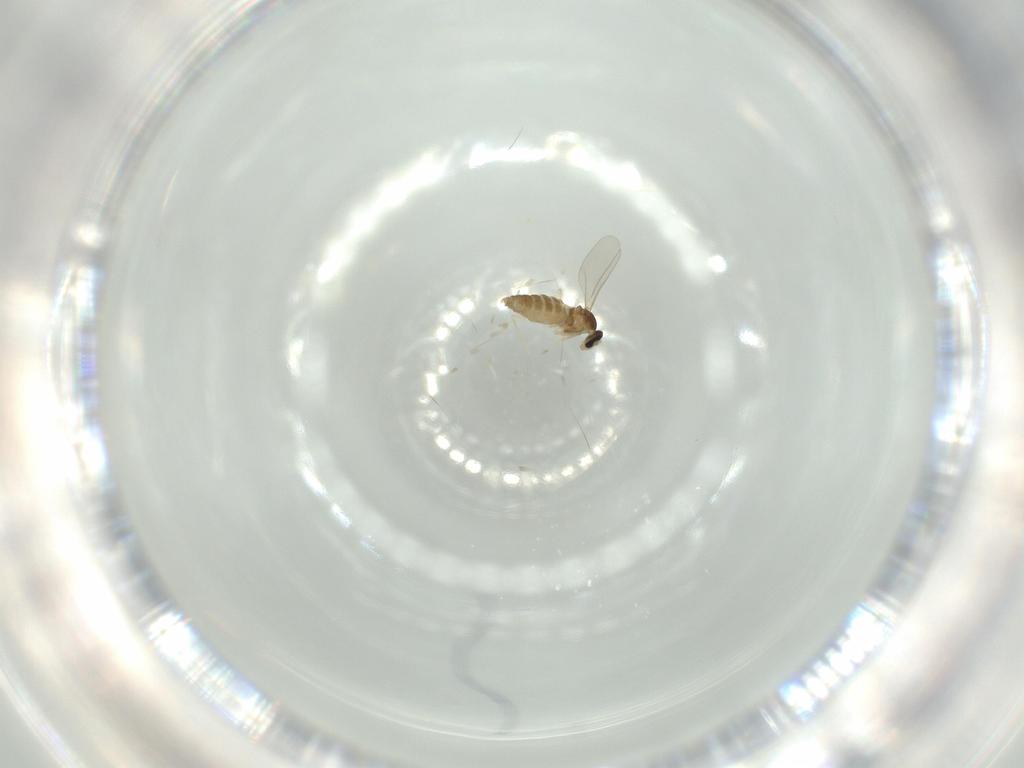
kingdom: Animalia
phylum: Arthropoda
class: Insecta
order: Diptera
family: Cecidomyiidae
